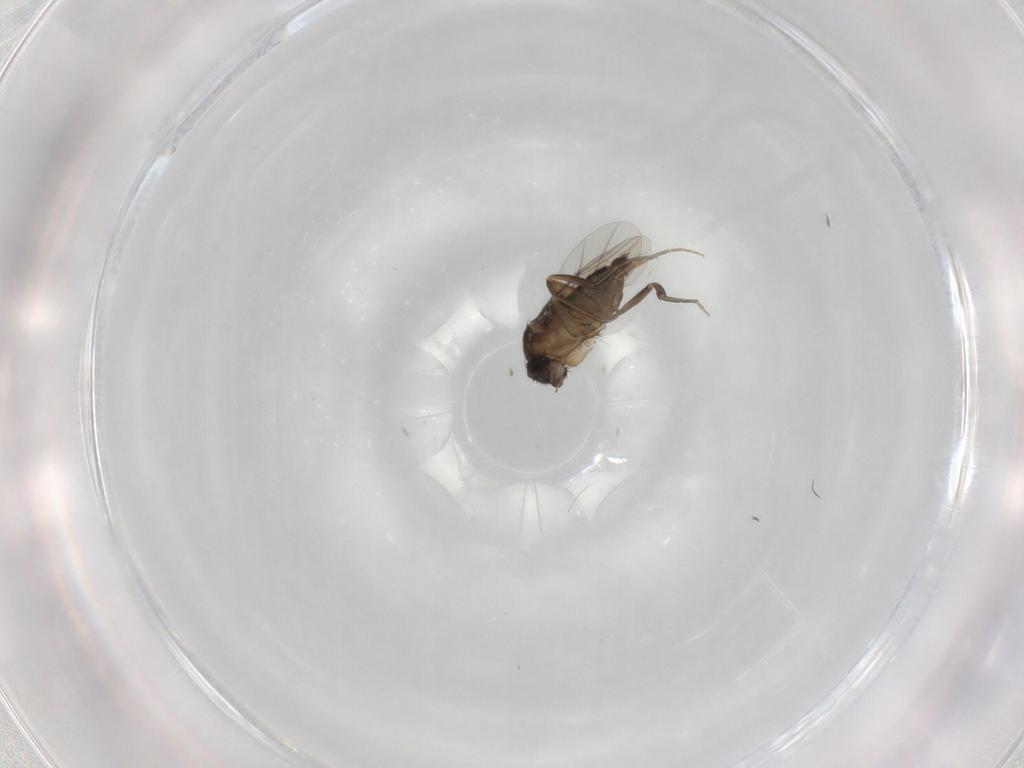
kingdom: Animalia
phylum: Arthropoda
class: Insecta
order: Diptera
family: Phoridae
